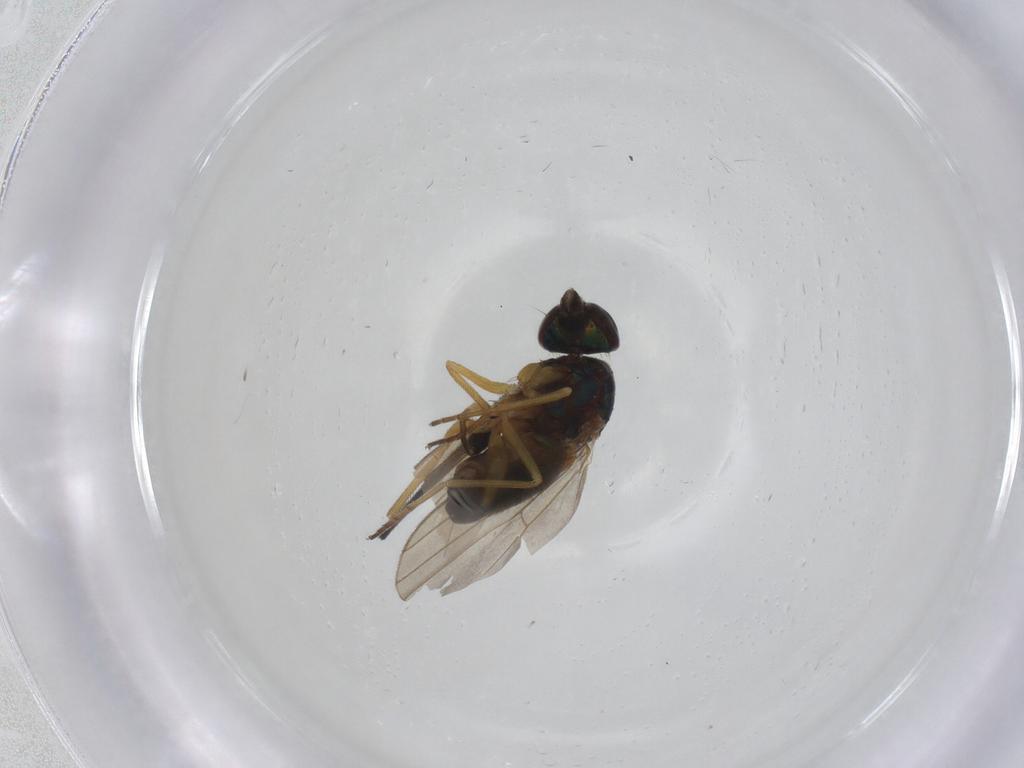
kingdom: Animalia
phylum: Arthropoda
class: Insecta
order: Diptera
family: Dolichopodidae
